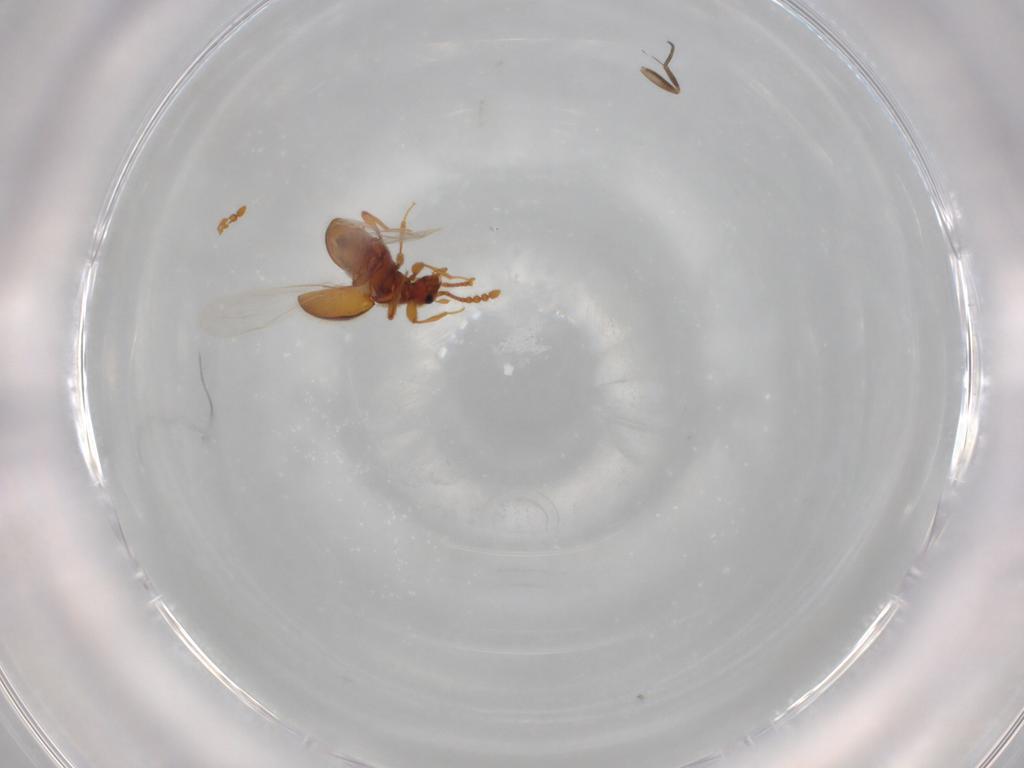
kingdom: Animalia
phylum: Arthropoda
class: Insecta
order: Coleoptera
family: Staphylinidae
